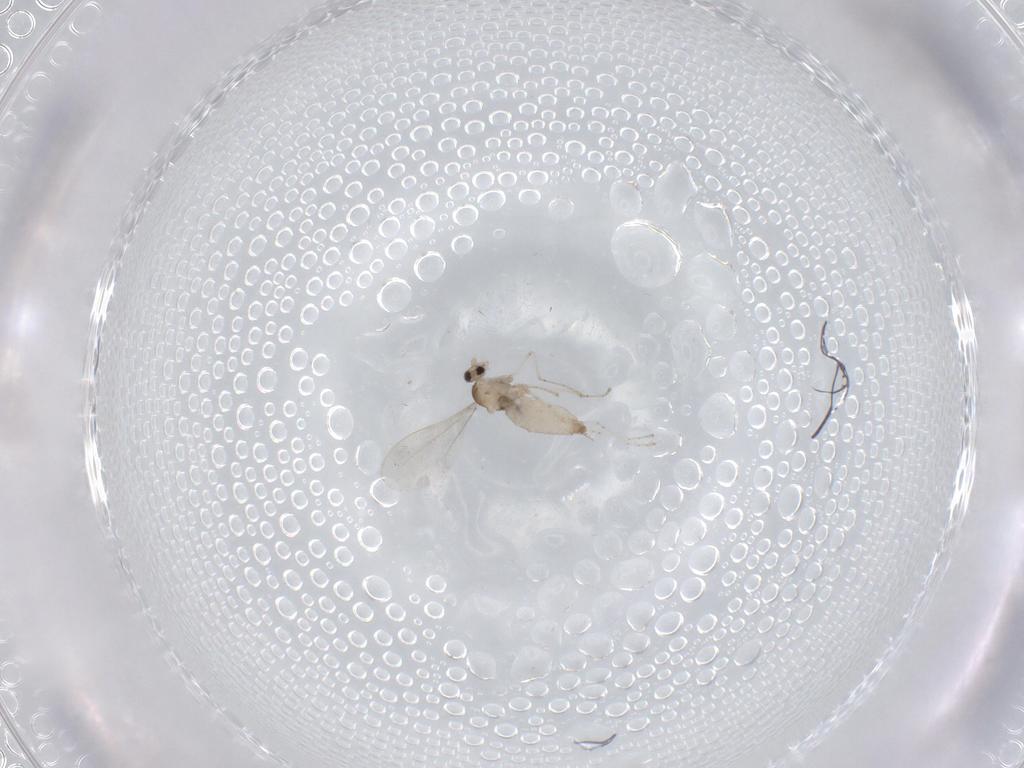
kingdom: Animalia
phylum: Arthropoda
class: Insecta
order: Diptera
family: Cecidomyiidae
